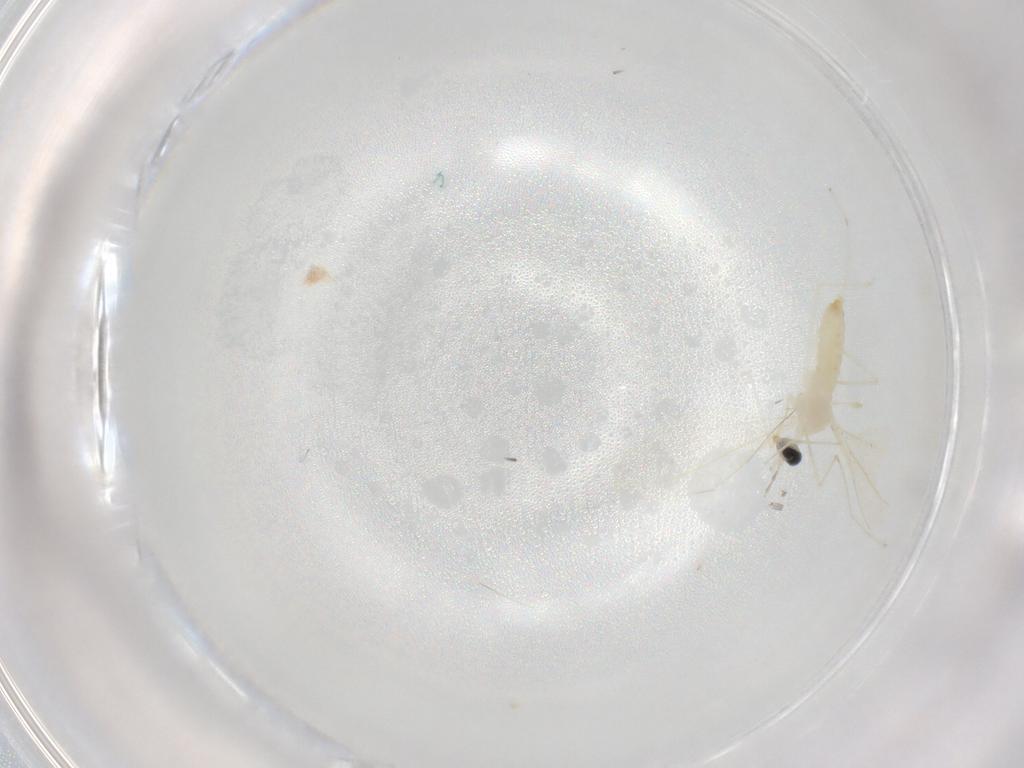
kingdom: Animalia
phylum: Arthropoda
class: Insecta
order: Diptera
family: Cecidomyiidae
